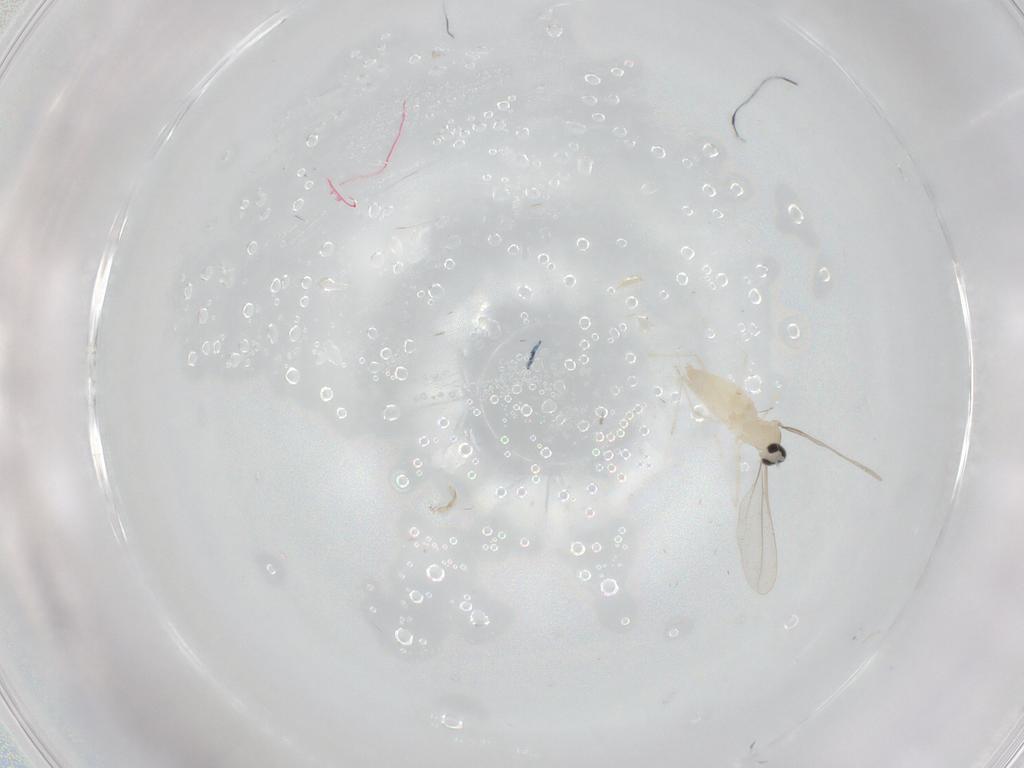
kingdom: Animalia
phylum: Arthropoda
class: Insecta
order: Diptera
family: Cecidomyiidae
